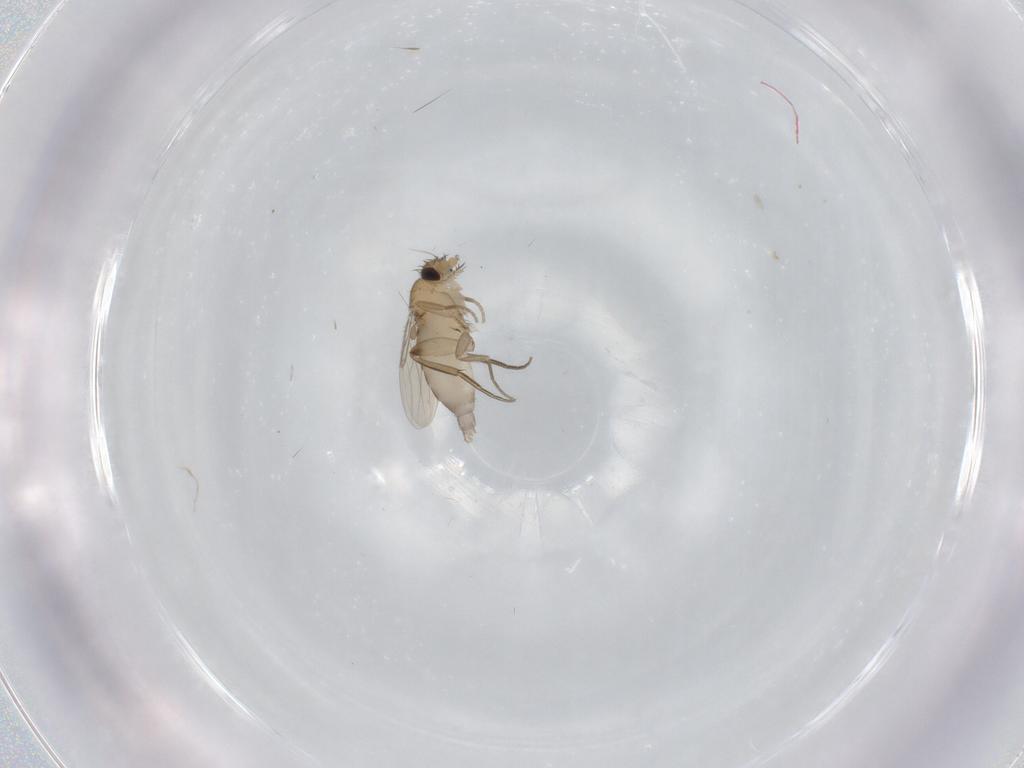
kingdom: Animalia
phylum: Arthropoda
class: Insecta
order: Diptera
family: Phoridae
